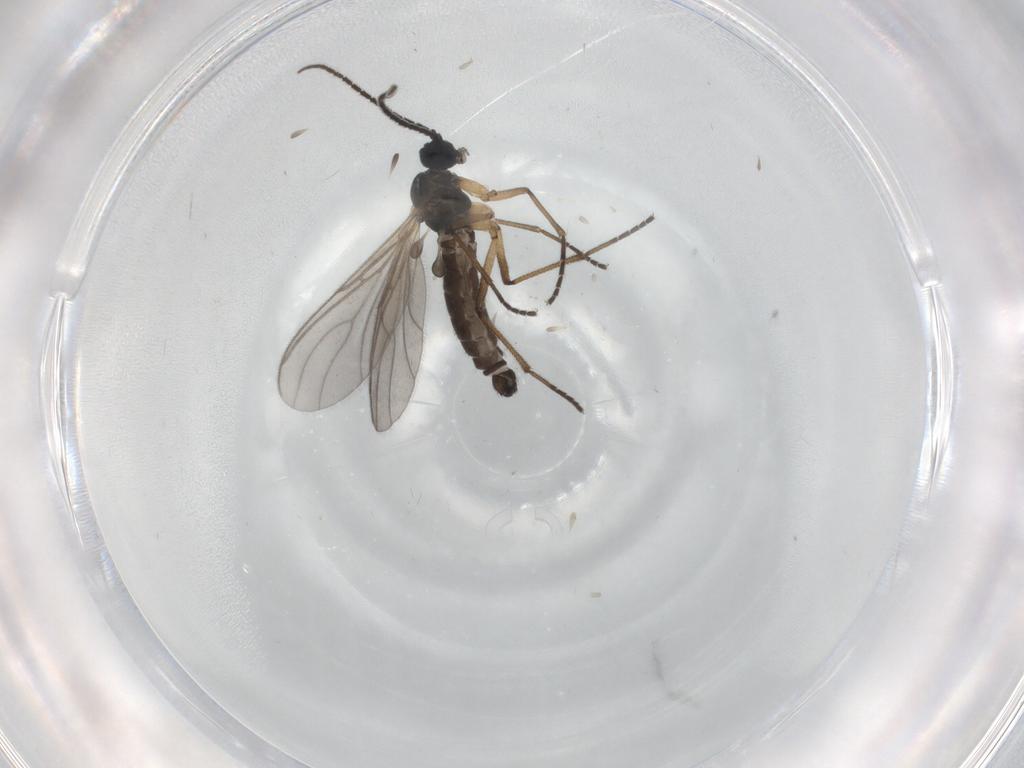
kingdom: Animalia
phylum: Arthropoda
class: Insecta
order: Diptera
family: Sciaridae
